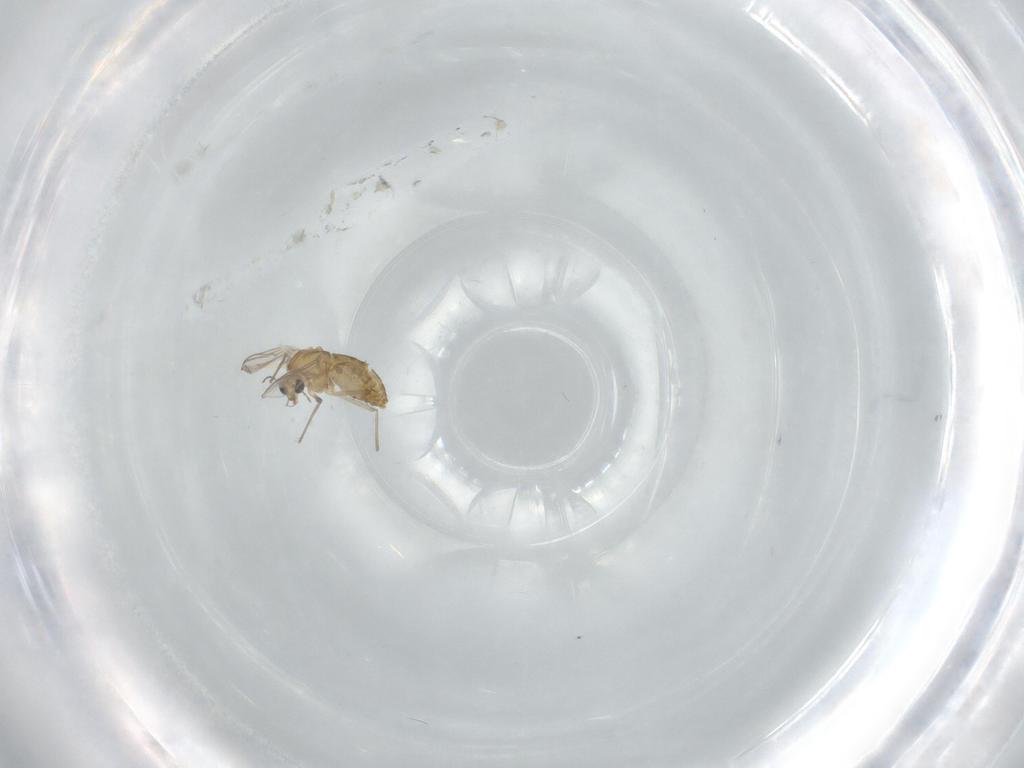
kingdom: Animalia
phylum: Arthropoda
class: Insecta
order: Diptera
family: Chironomidae
